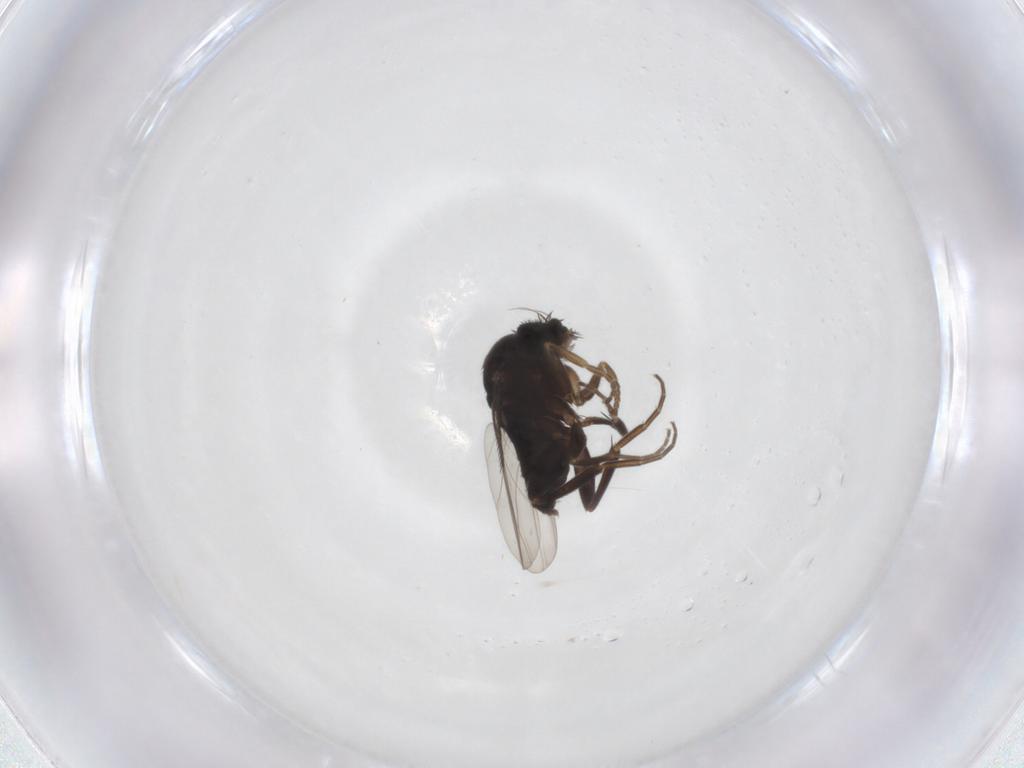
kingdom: Animalia
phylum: Arthropoda
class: Insecta
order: Diptera
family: Phoridae
